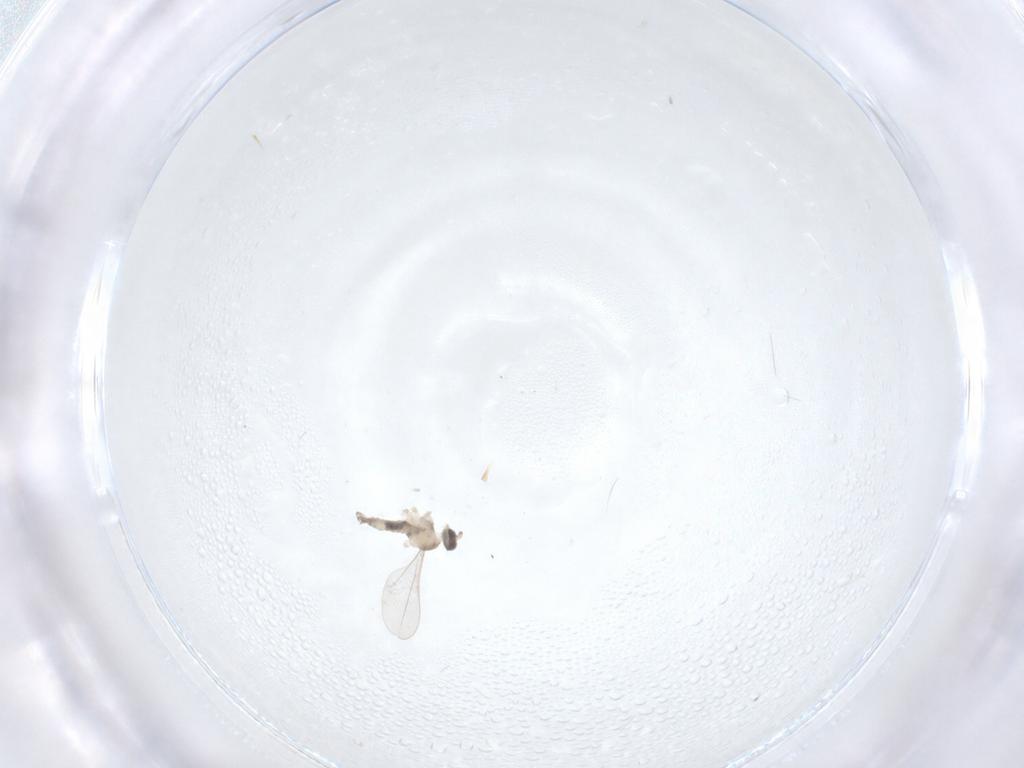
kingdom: Animalia
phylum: Arthropoda
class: Insecta
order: Diptera
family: Cecidomyiidae
